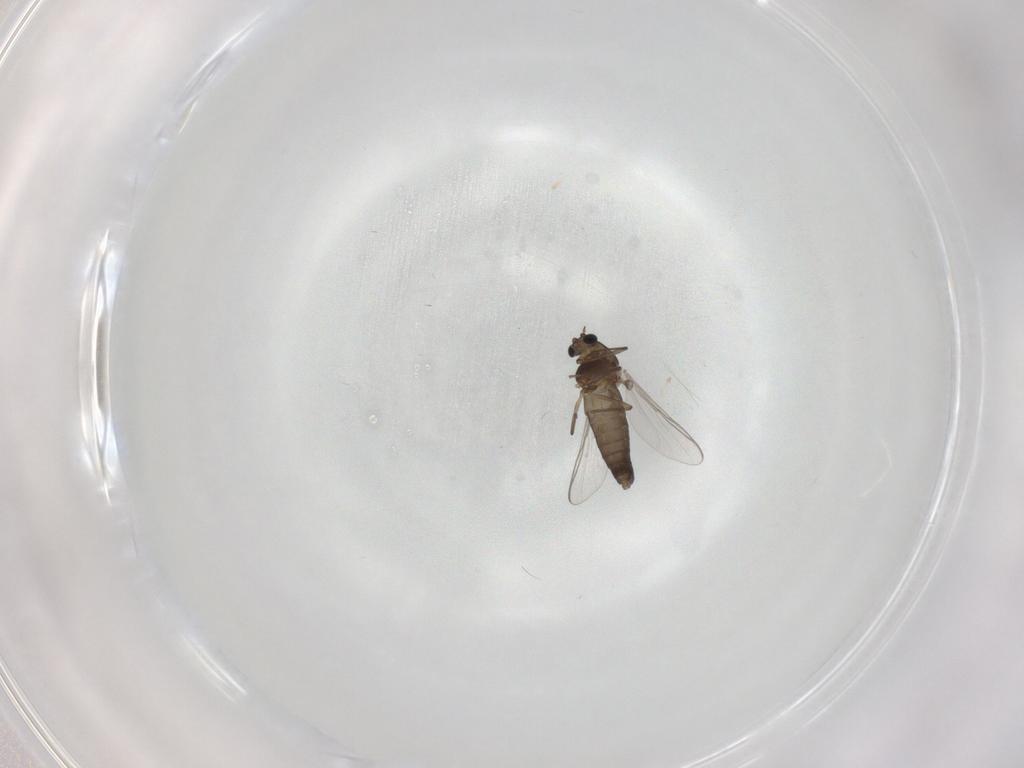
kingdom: Animalia
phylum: Arthropoda
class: Insecta
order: Diptera
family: Chironomidae
